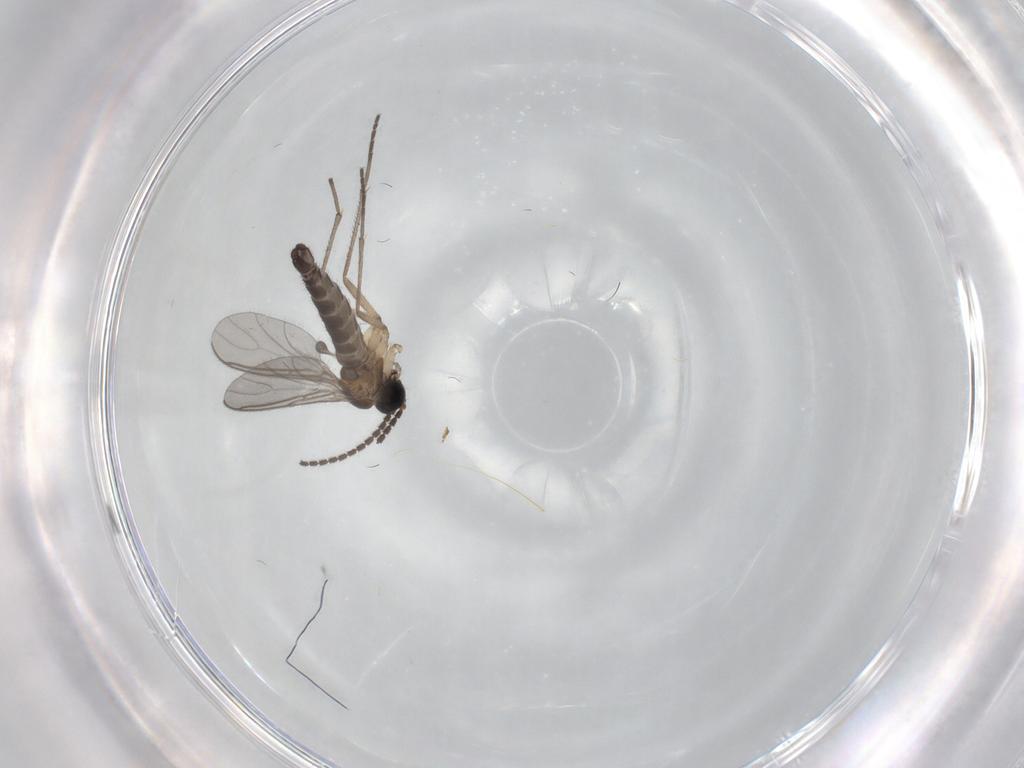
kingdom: Animalia
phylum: Arthropoda
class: Insecta
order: Diptera
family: Sciaridae
